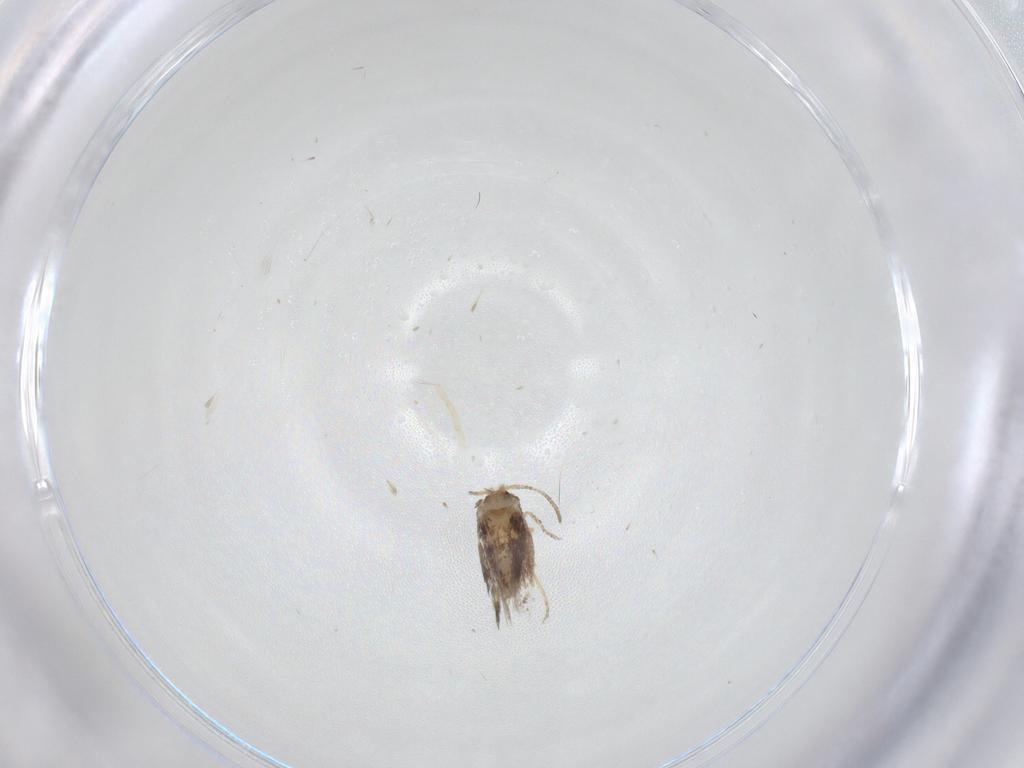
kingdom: Animalia
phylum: Arthropoda
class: Insecta
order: Lepidoptera
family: Nepticulidae
